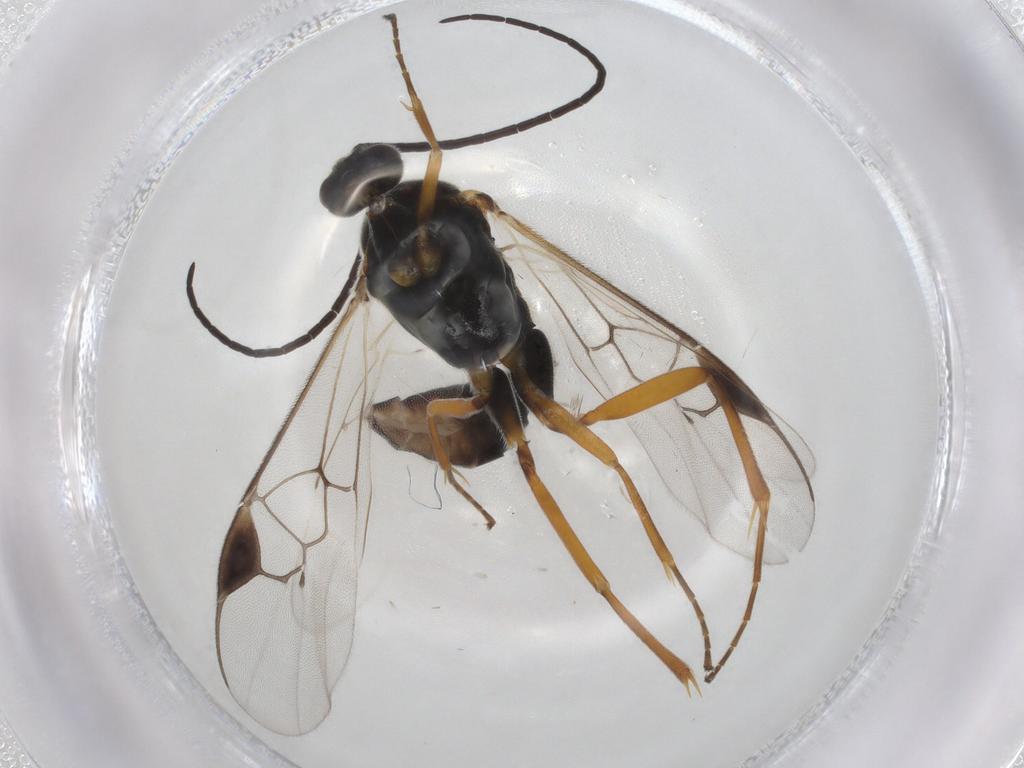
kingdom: Animalia
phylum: Arthropoda
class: Insecta
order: Hymenoptera
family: Braconidae
